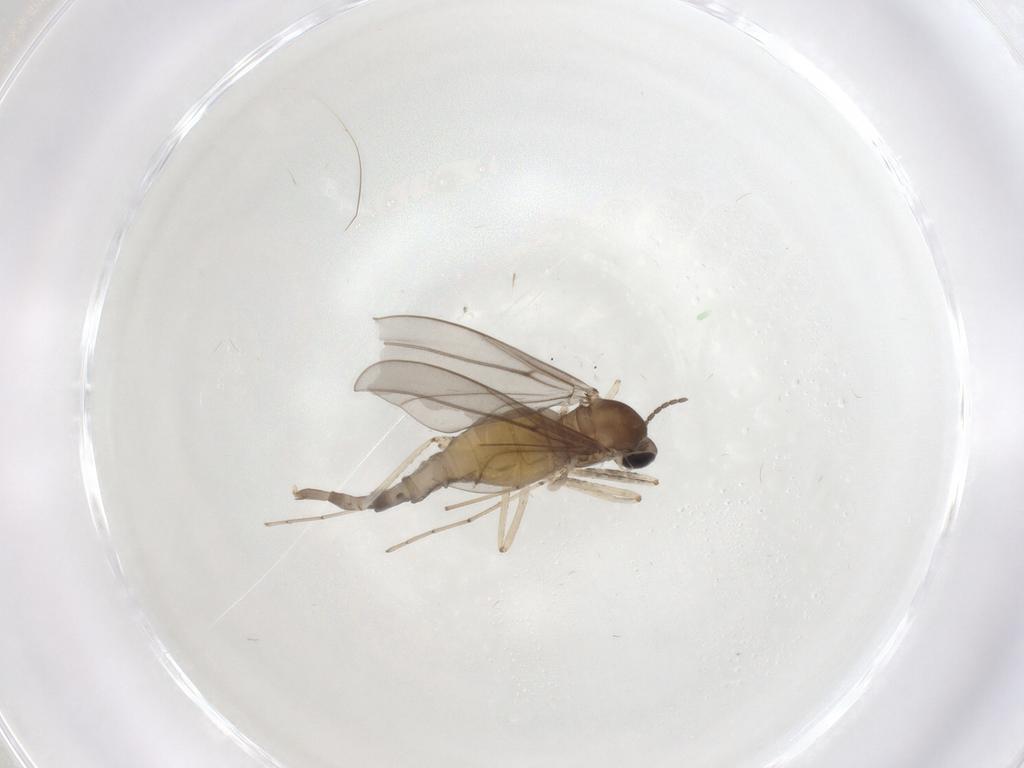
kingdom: Animalia
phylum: Arthropoda
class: Insecta
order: Diptera
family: Cecidomyiidae
